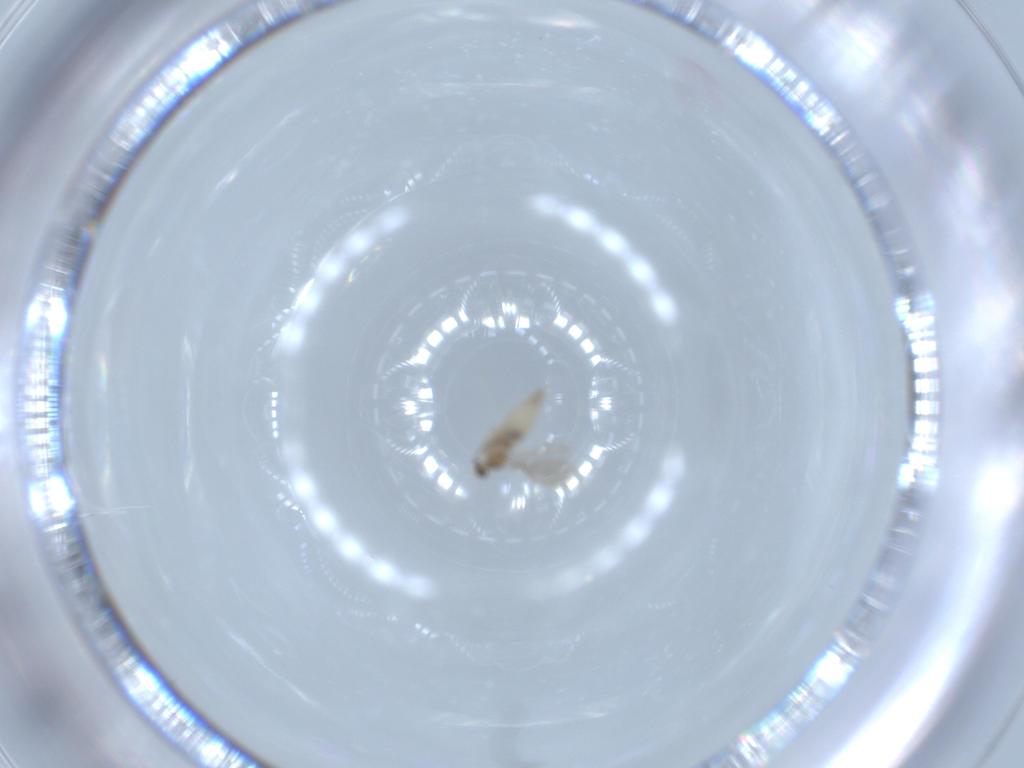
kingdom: Animalia
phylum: Arthropoda
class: Insecta
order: Diptera
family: Cecidomyiidae
